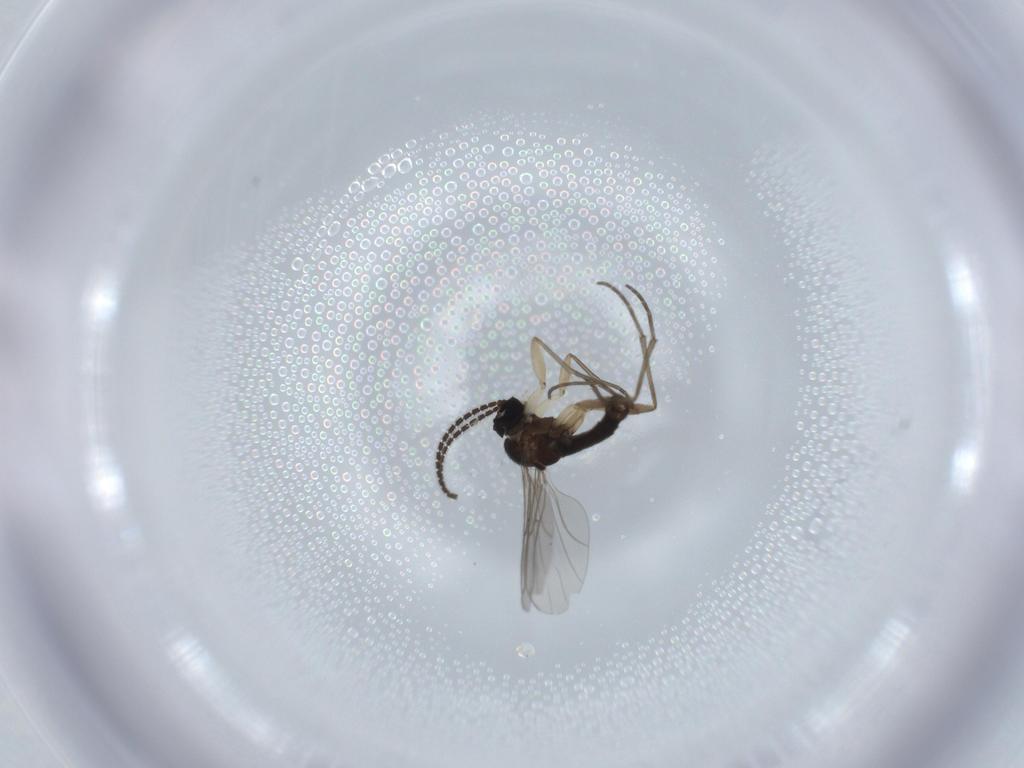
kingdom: Animalia
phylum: Arthropoda
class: Insecta
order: Diptera
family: Sciaridae
